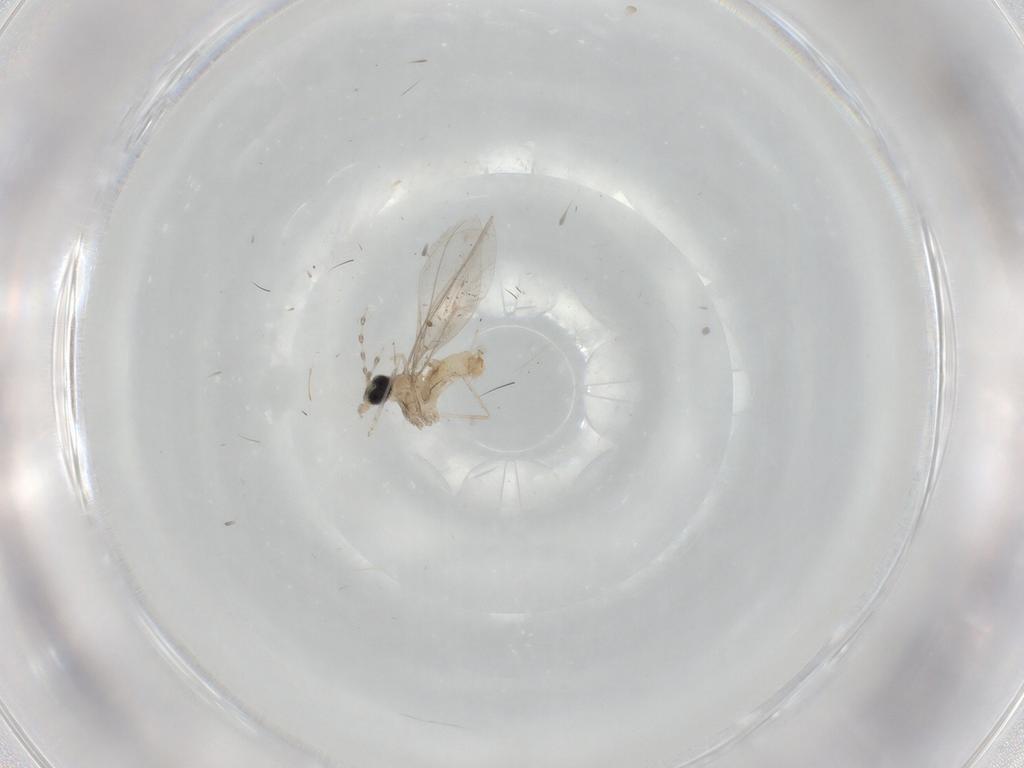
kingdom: Animalia
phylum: Arthropoda
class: Insecta
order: Diptera
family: Cecidomyiidae
